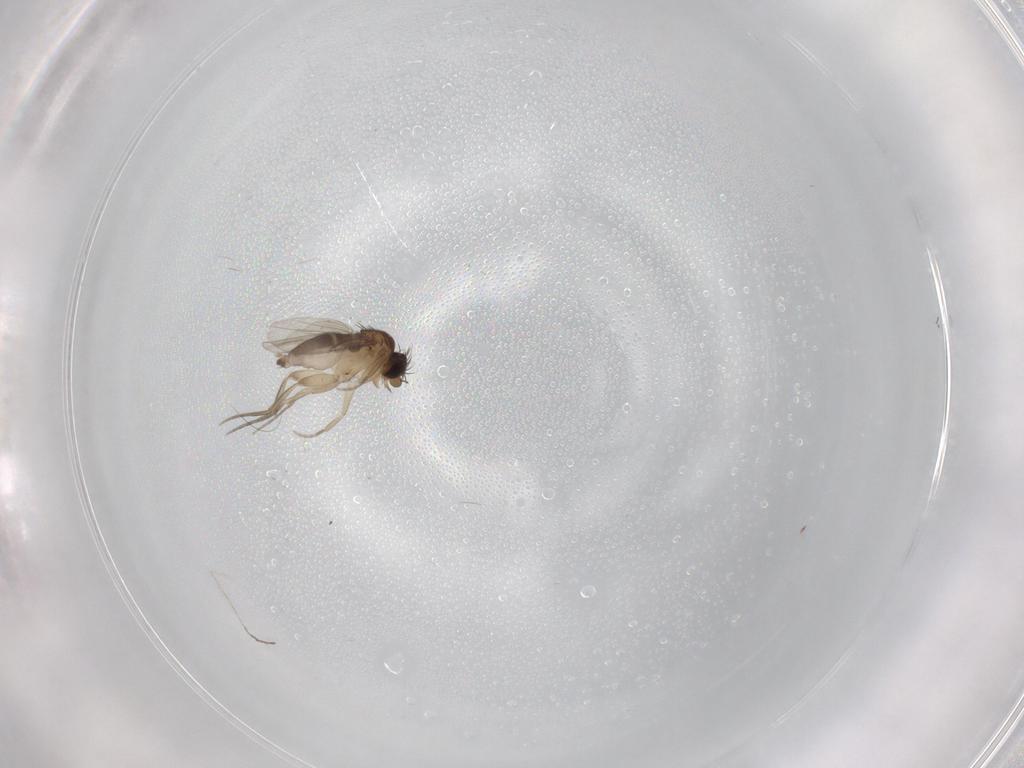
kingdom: Animalia
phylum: Arthropoda
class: Insecta
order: Diptera
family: Phoridae
